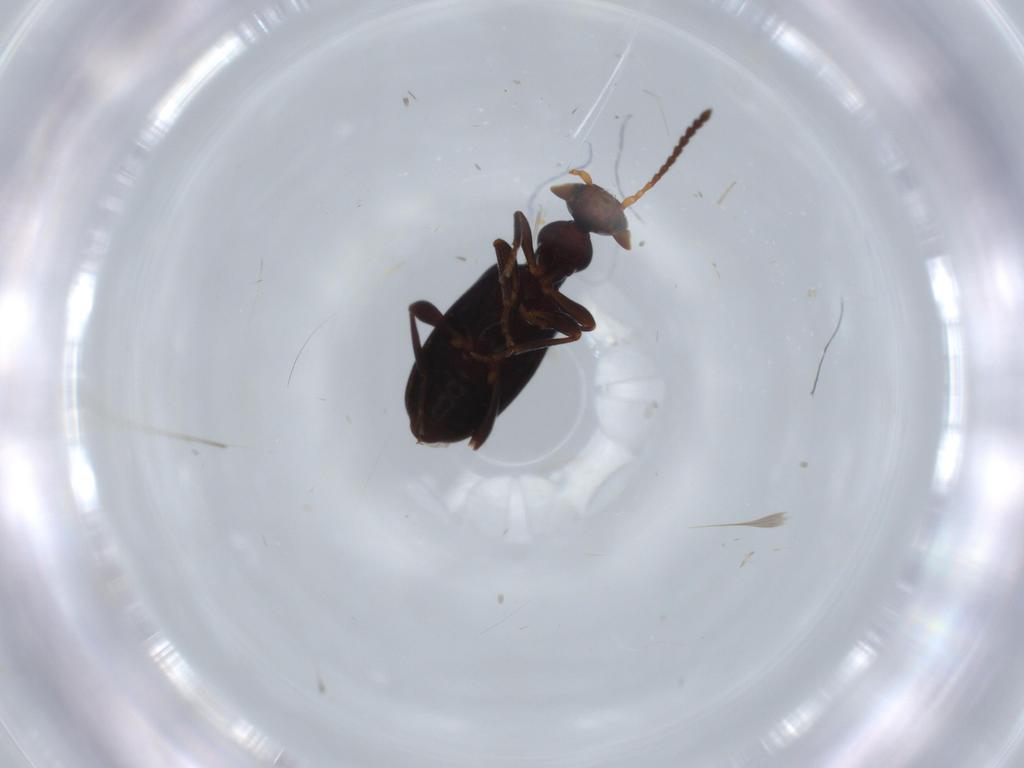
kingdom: Animalia
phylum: Arthropoda
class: Insecta
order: Coleoptera
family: Anthicidae
